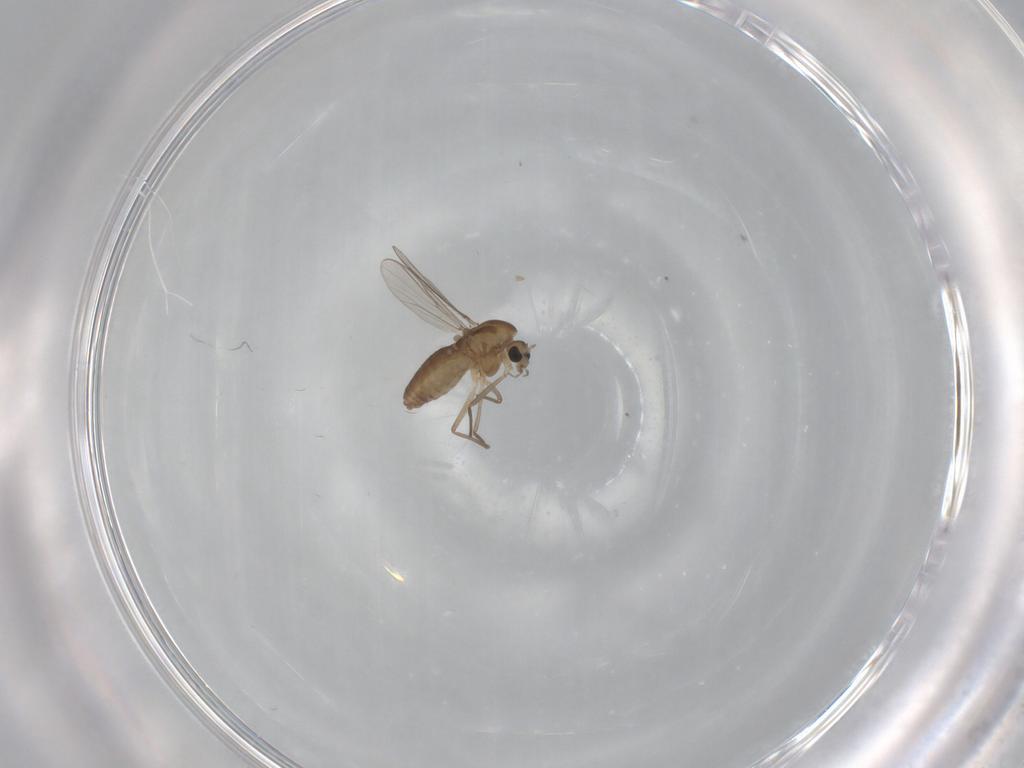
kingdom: Animalia
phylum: Arthropoda
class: Insecta
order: Diptera
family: Chironomidae
